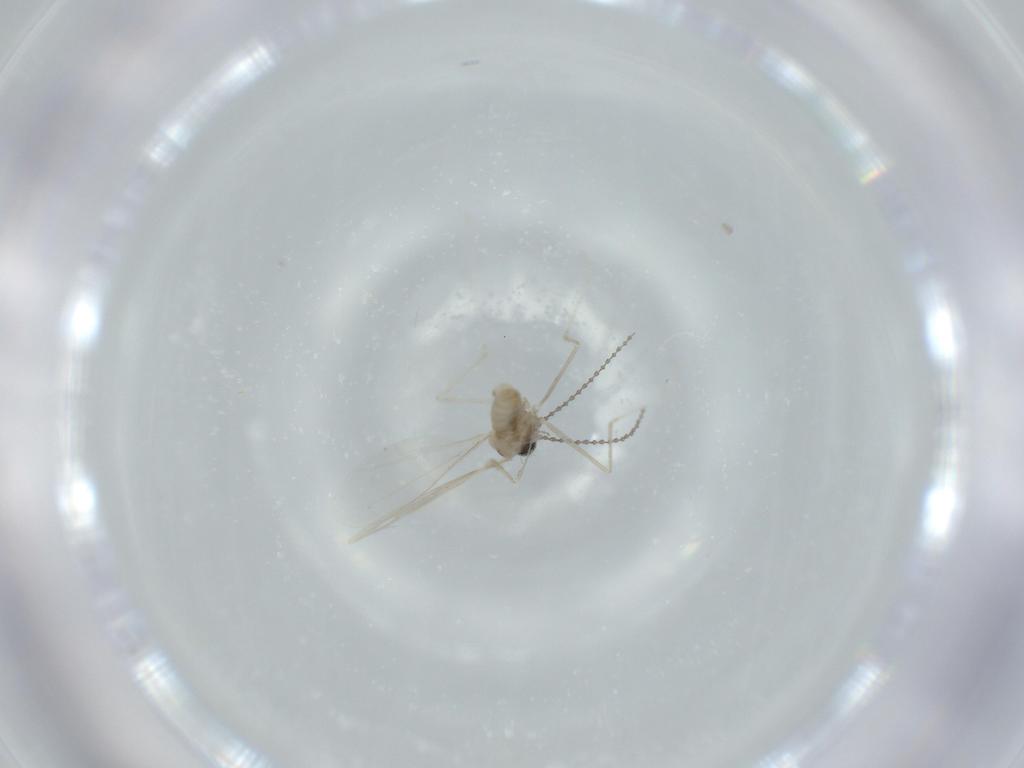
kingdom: Animalia
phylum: Arthropoda
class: Insecta
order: Diptera
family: Cecidomyiidae
